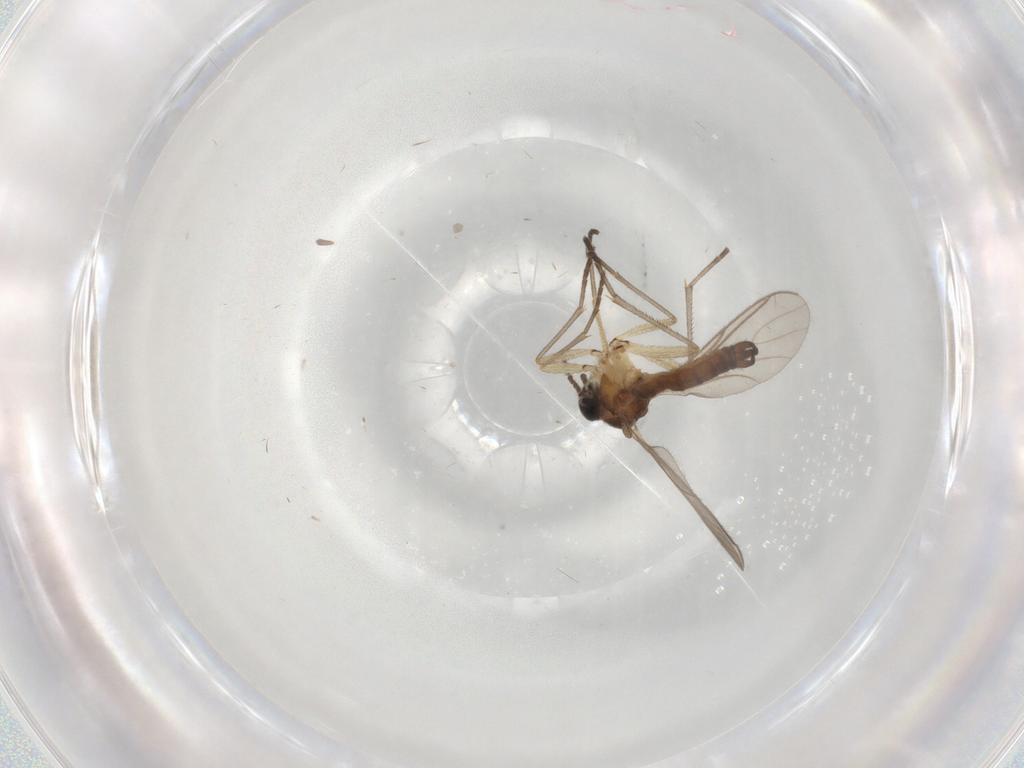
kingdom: Animalia
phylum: Arthropoda
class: Insecta
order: Diptera
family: Sciaridae
